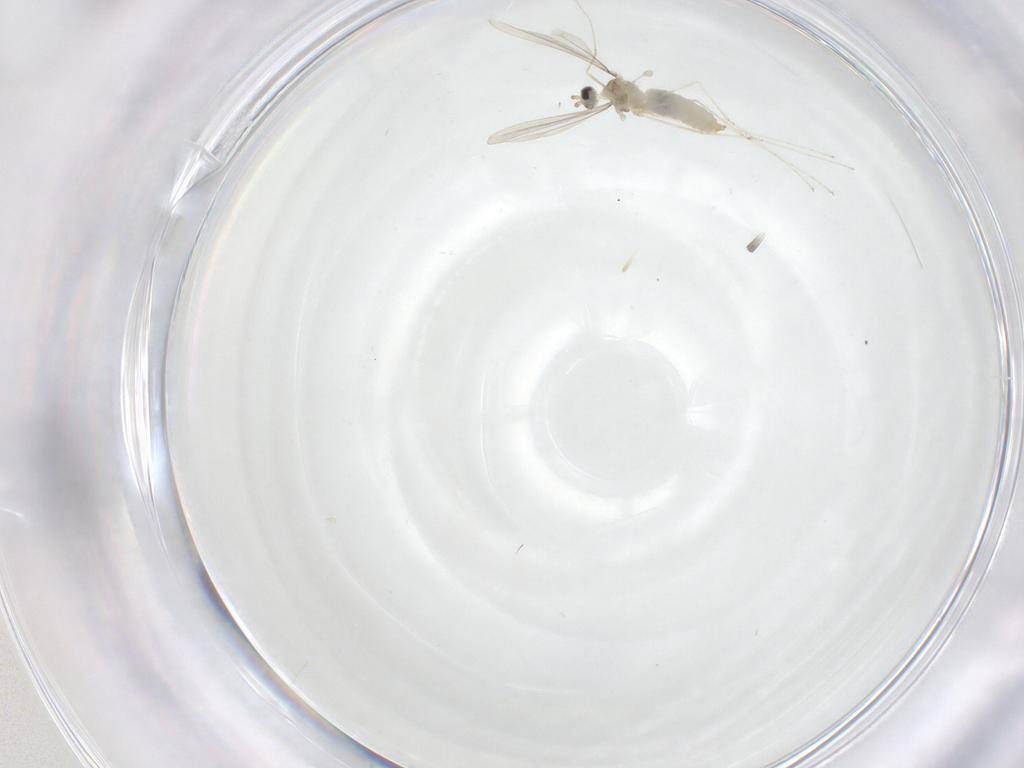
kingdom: Animalia
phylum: Arthropoda
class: Insecta
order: Diptera
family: Cecidomyiidae
